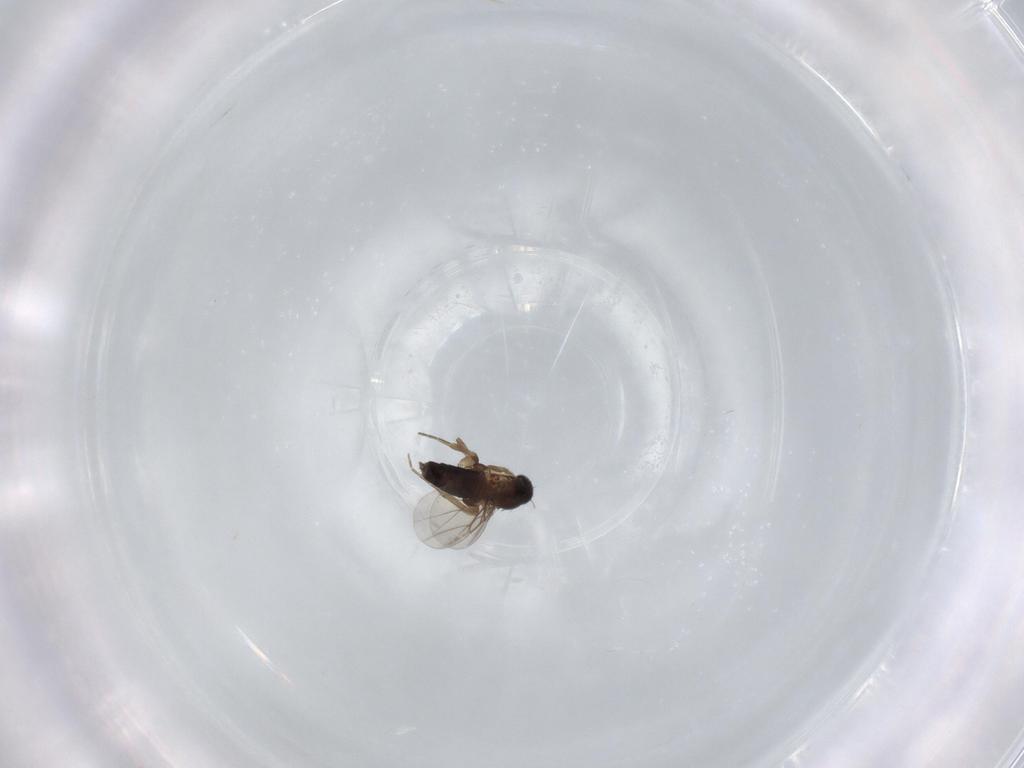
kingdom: Animalia
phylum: Arthropoda
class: Insecta
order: Diptera
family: Phoridae
